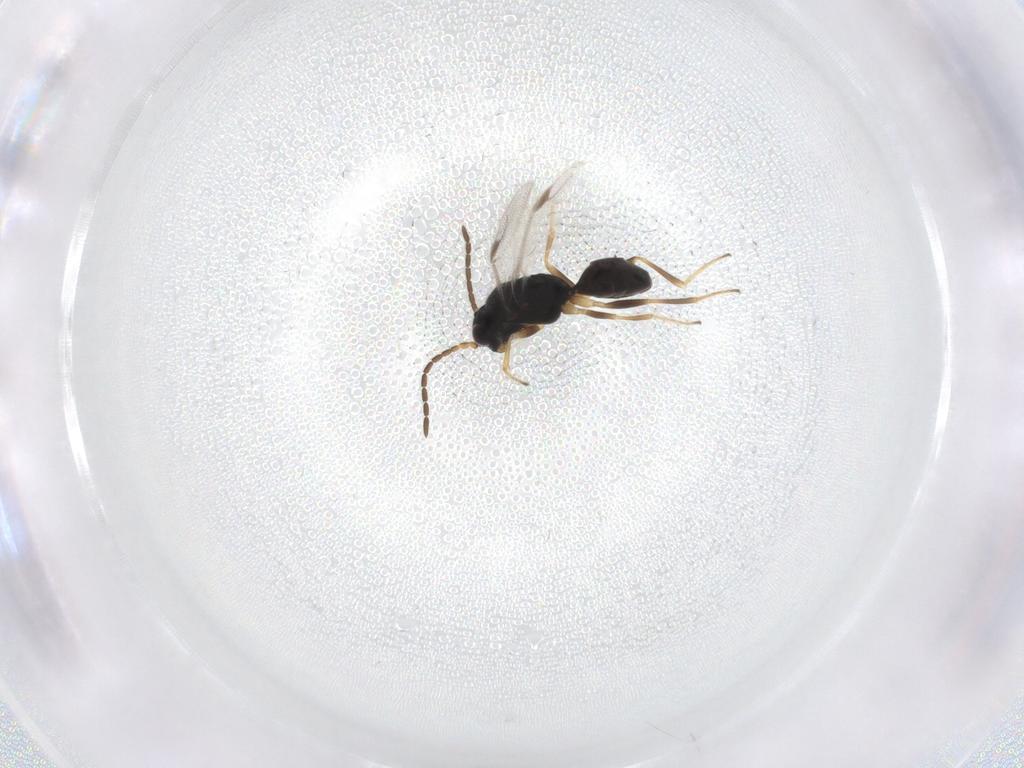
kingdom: Animalia
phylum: Arthropoda
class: Insecta
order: Hymenoptera
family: Dryinidae
